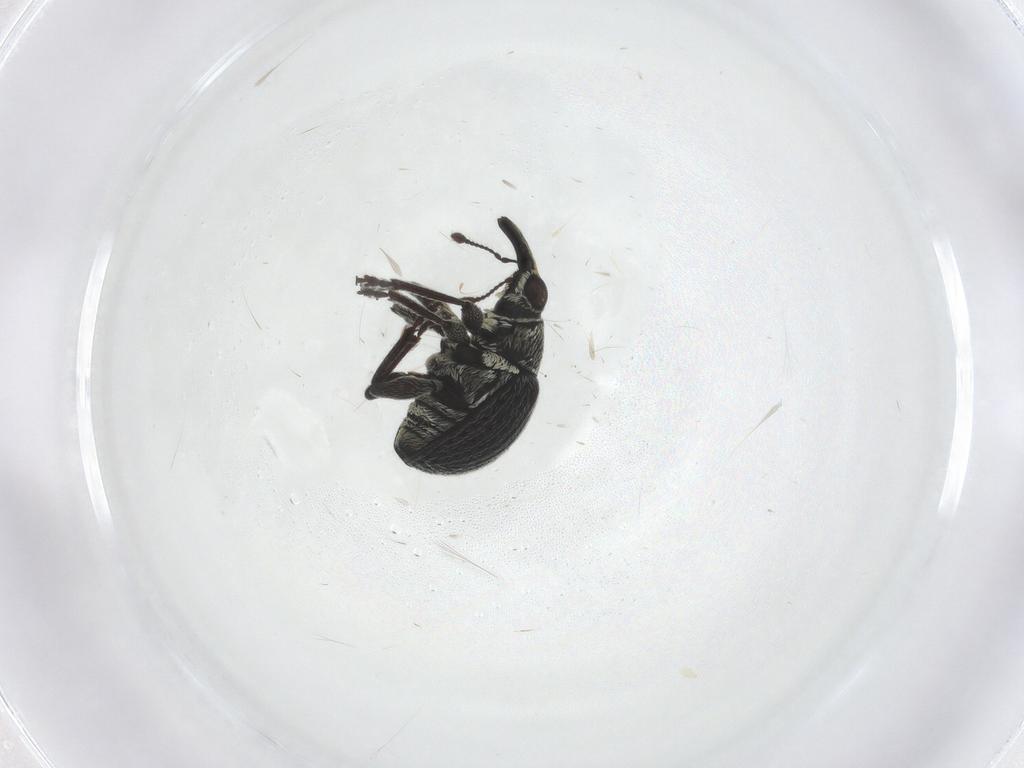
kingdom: Animalia
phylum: Arthropoda
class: Insecta
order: Coleoptera
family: Brentidae
